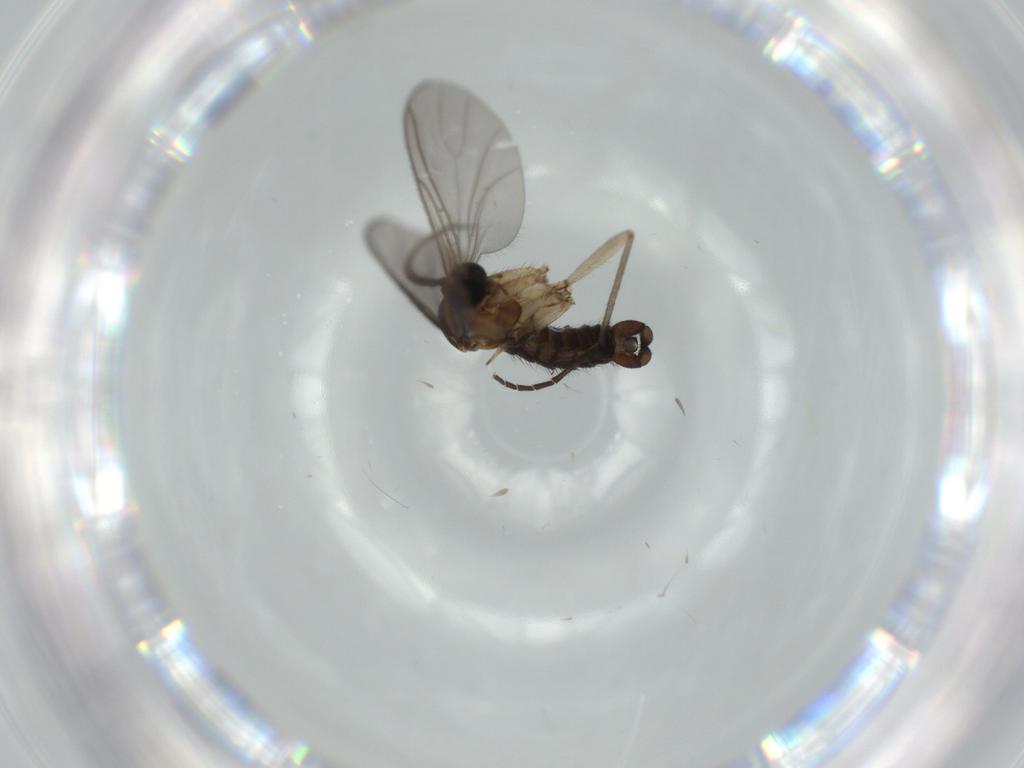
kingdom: Animalia
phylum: Arthropoda
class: Insecta
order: Diptera
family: Sciaridae
